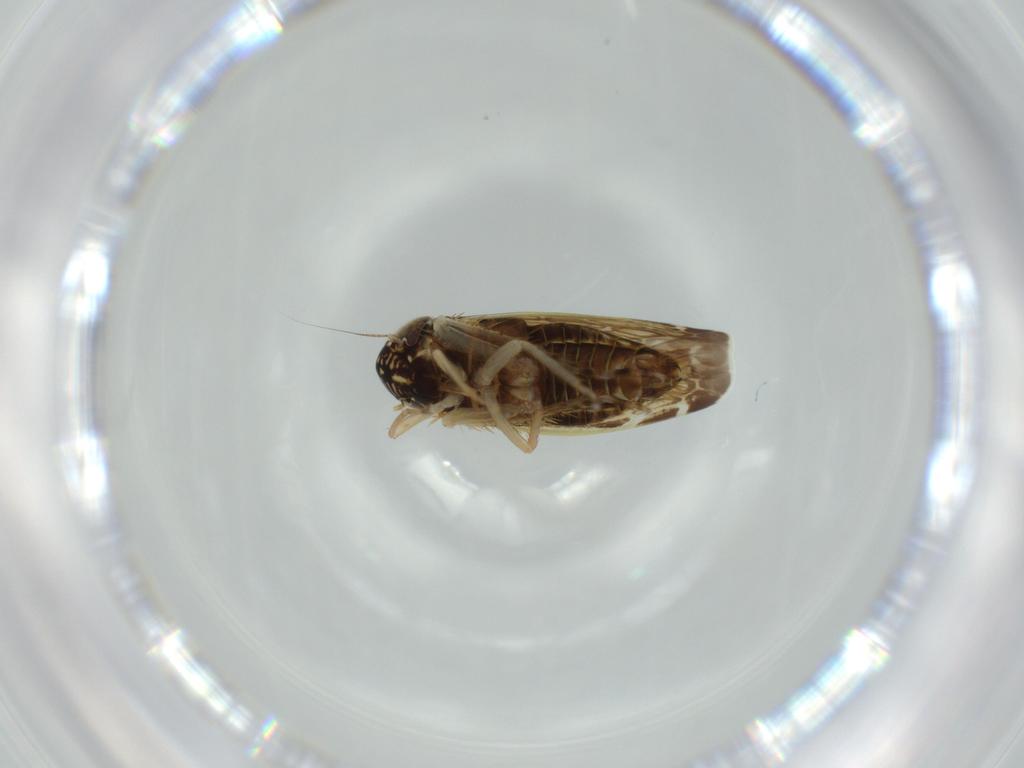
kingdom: Animalia
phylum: Arthropoda
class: Insecta
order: Hemiptera
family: Cicadellidae
